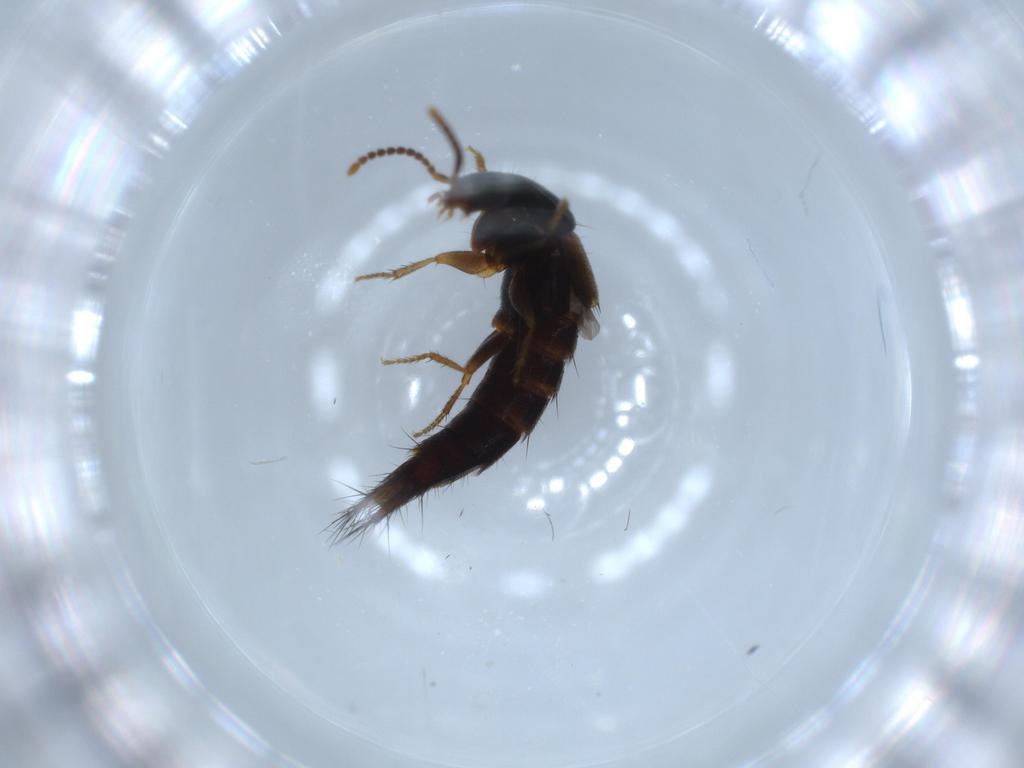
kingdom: Animalia
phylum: Arthropoda
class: Insecta
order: Coleoptera
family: Staphylinidae
